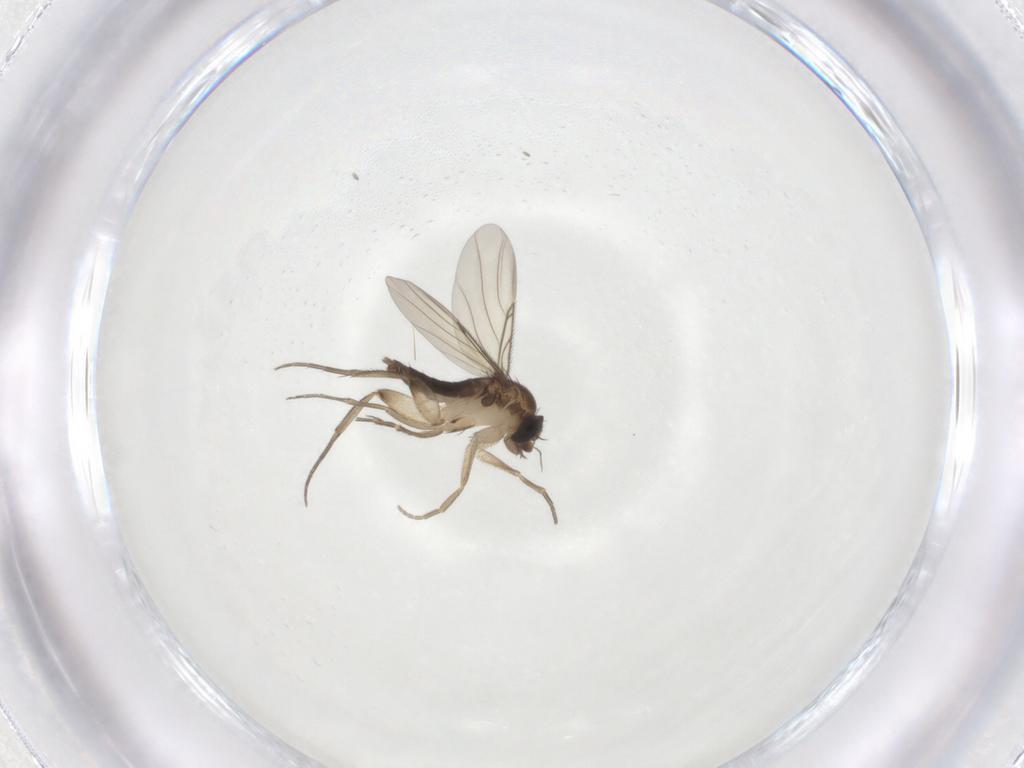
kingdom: Animalia
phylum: Arthropoda
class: Insecta
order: Diptera
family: Phoridae
